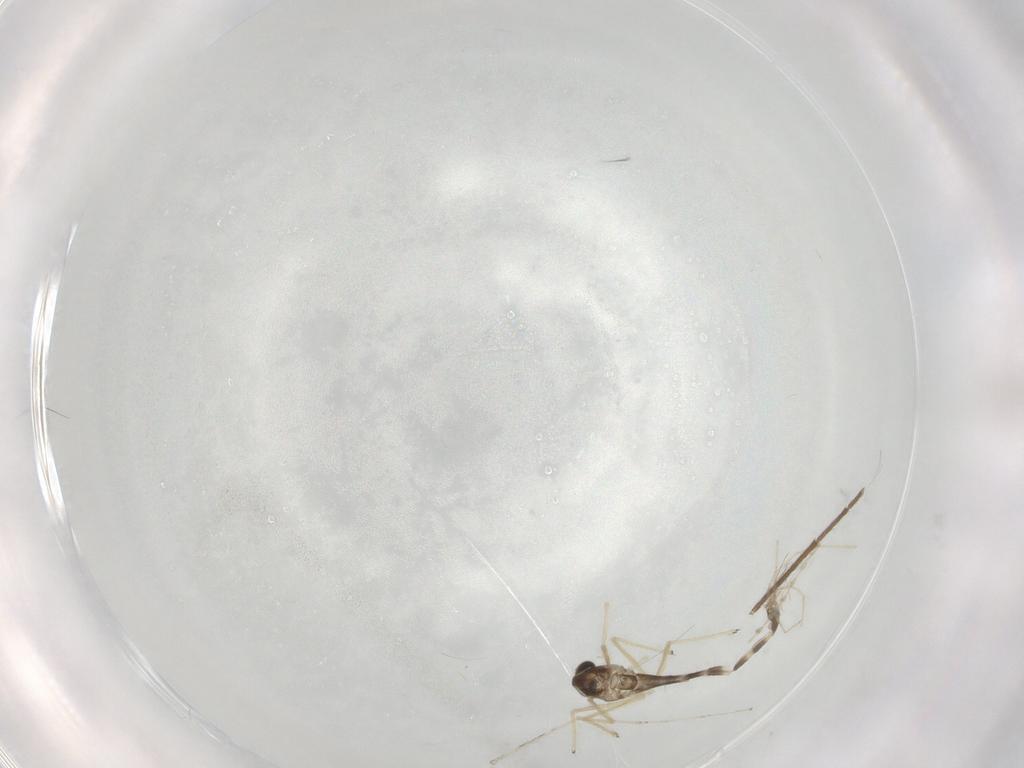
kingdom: Animalia
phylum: Arthropoda
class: Insecta
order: Diptera
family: Chironomidae
